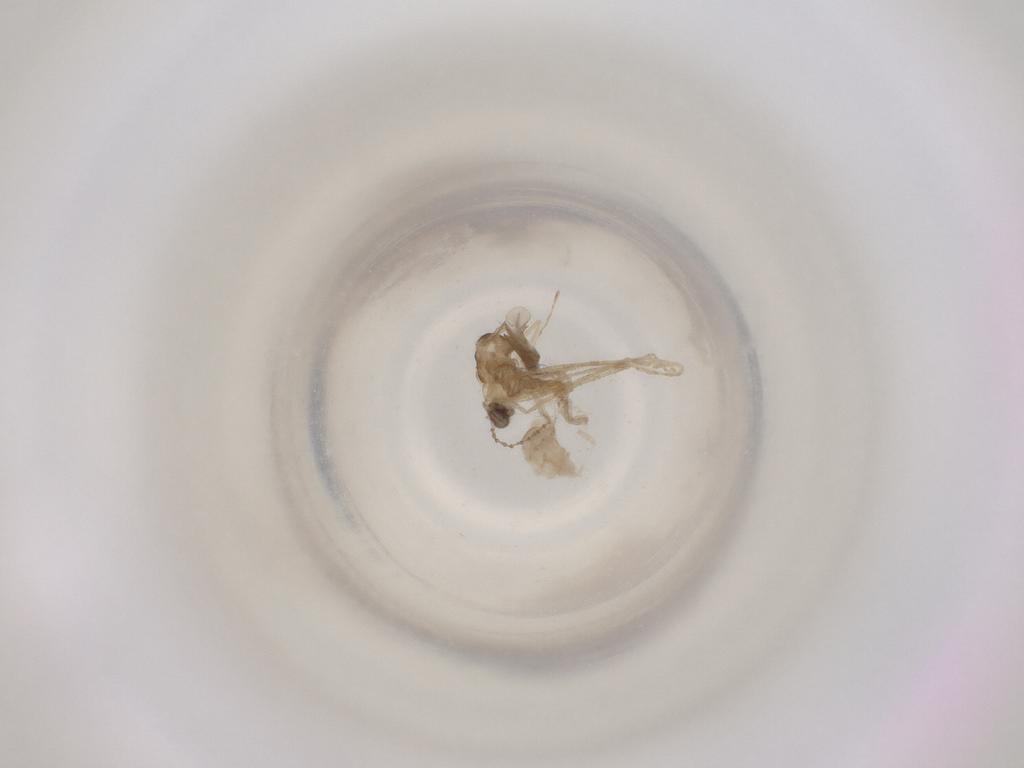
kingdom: Animalia
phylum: Arthropoda
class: Insecta
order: Diptera
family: Cecidomyiidae
